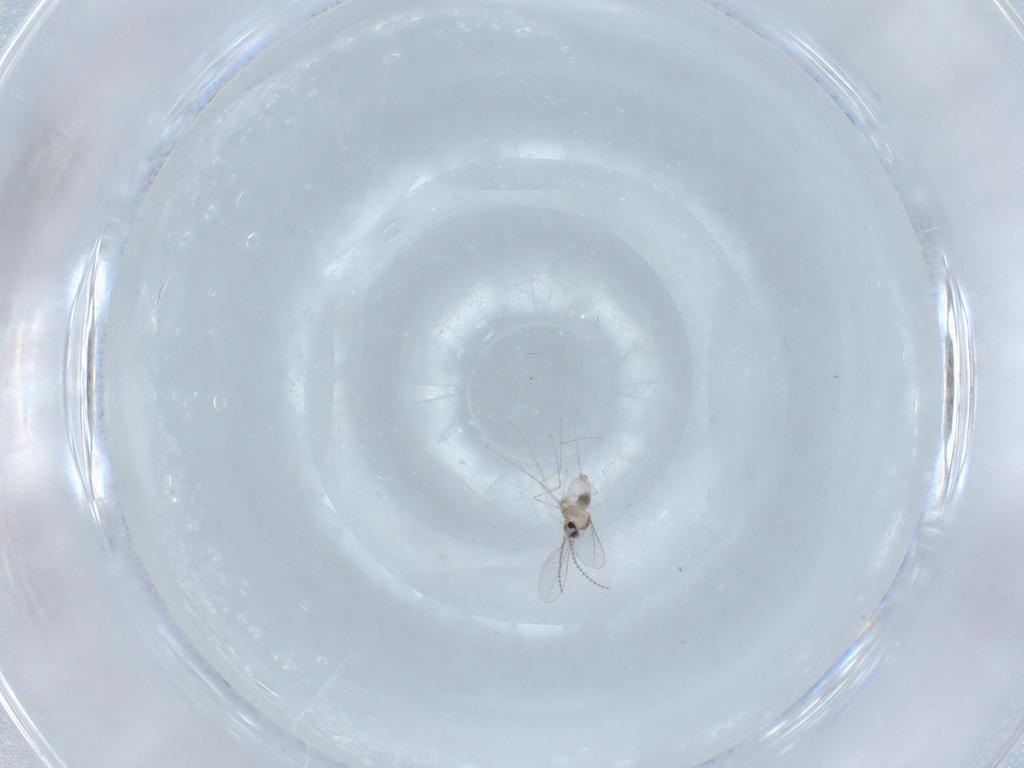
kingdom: Animalia
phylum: Arthropoda
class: Insecta
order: Diptera
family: Cecidomyiidae
